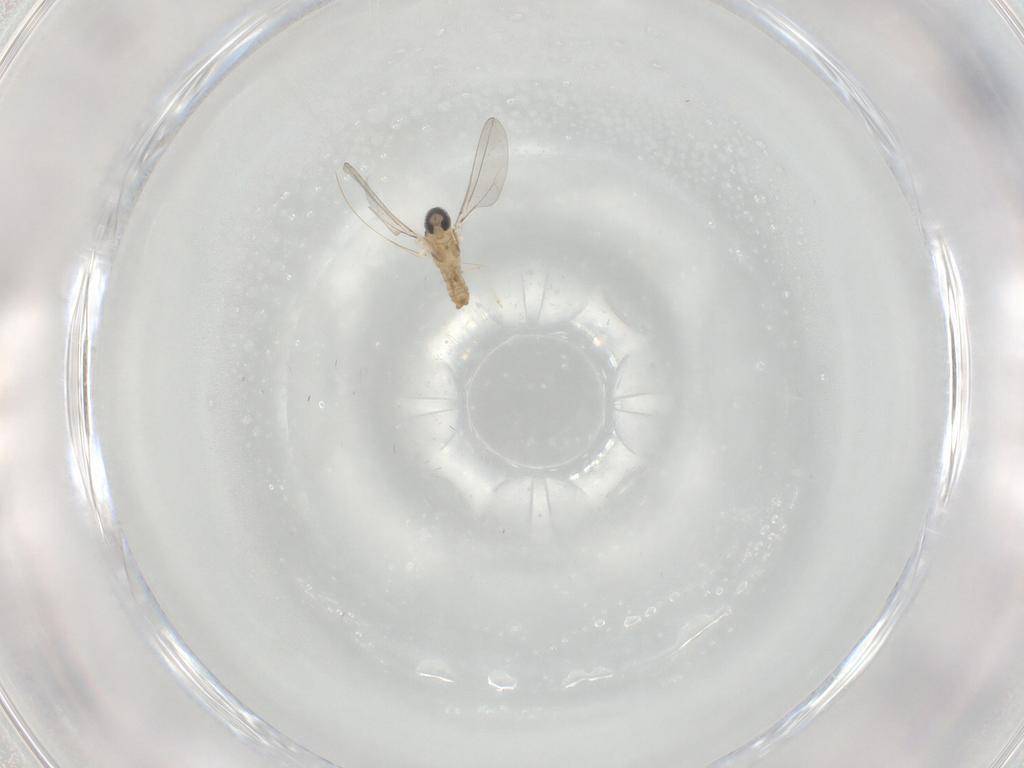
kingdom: Animalia
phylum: Arthropoda
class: Insecta
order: Diptera
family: Cecidomyiidae
